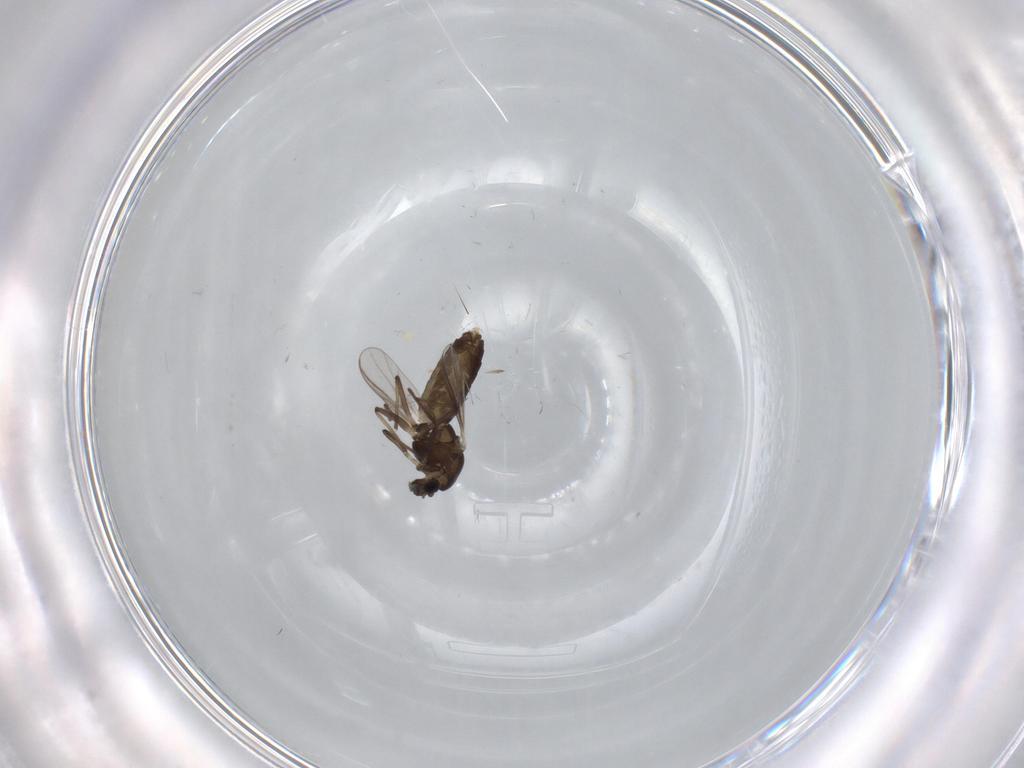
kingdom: Animalia
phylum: Arthropoda
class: Insecta
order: Diptera
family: Chironomidae
